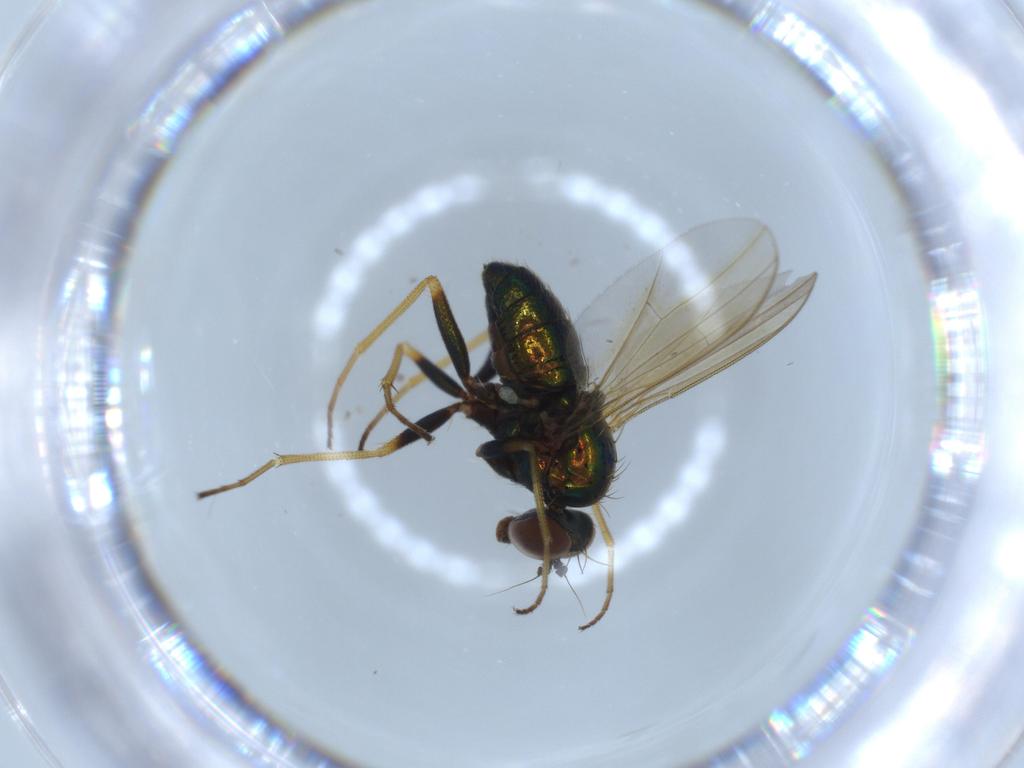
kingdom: Animalia
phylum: Arthropoda
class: Insecta
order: Diptera
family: Dolichopodidae
